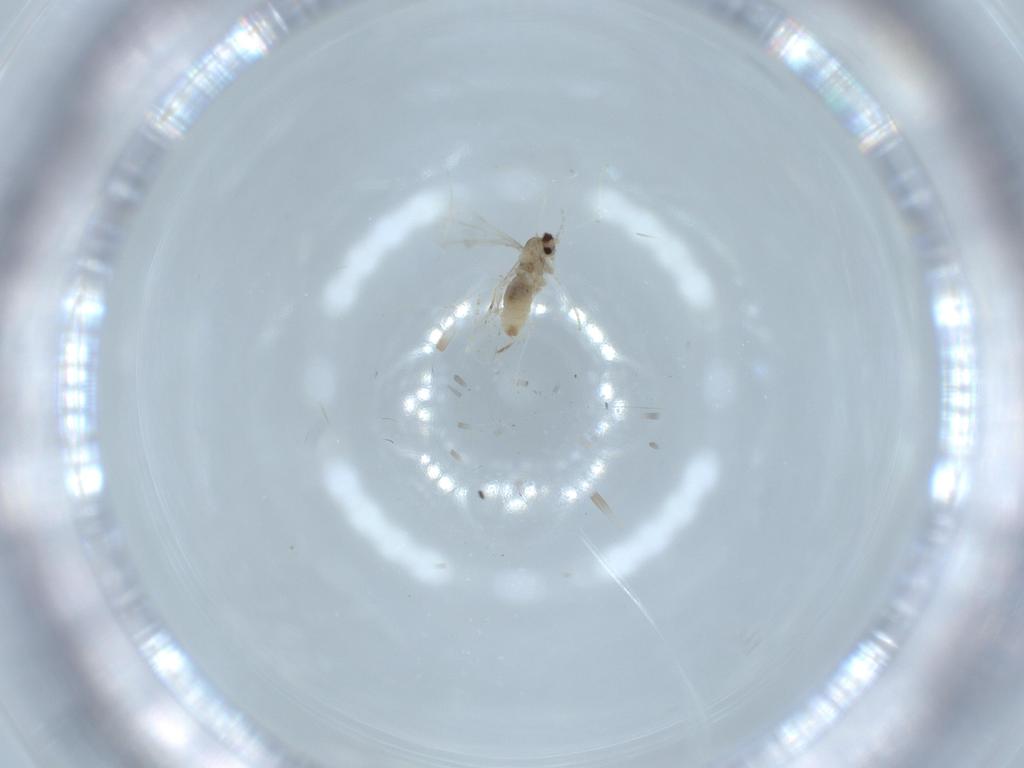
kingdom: Animalia
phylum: Arthropoda
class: Insecta
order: Diptera
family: Cecidomyiidae
